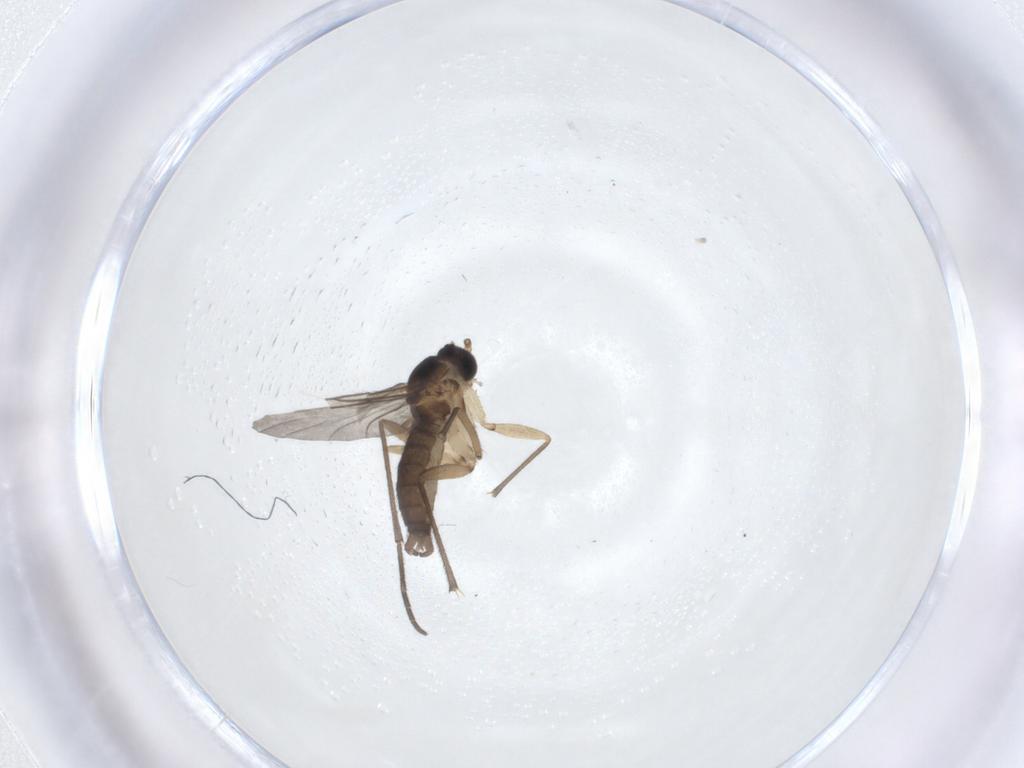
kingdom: Animalia
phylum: Arthropoda
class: Insecta
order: Diptera
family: Sciaridae
